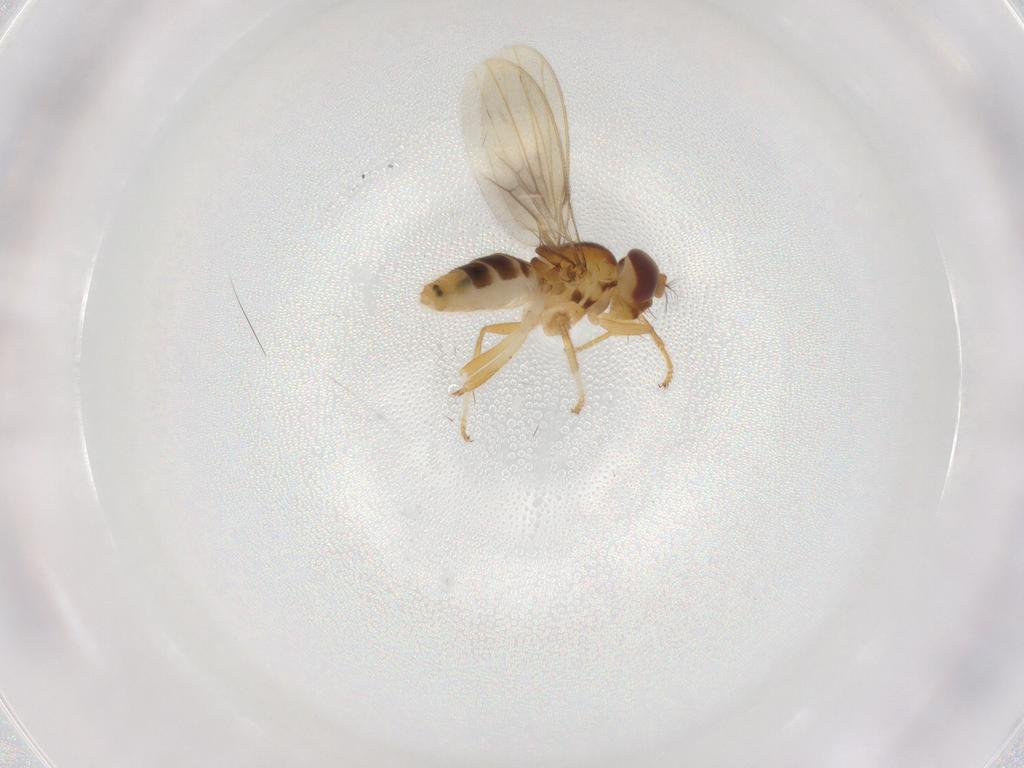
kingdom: Animalia
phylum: Arthropoda
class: Insecta
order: Diptera
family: Periscelididae
